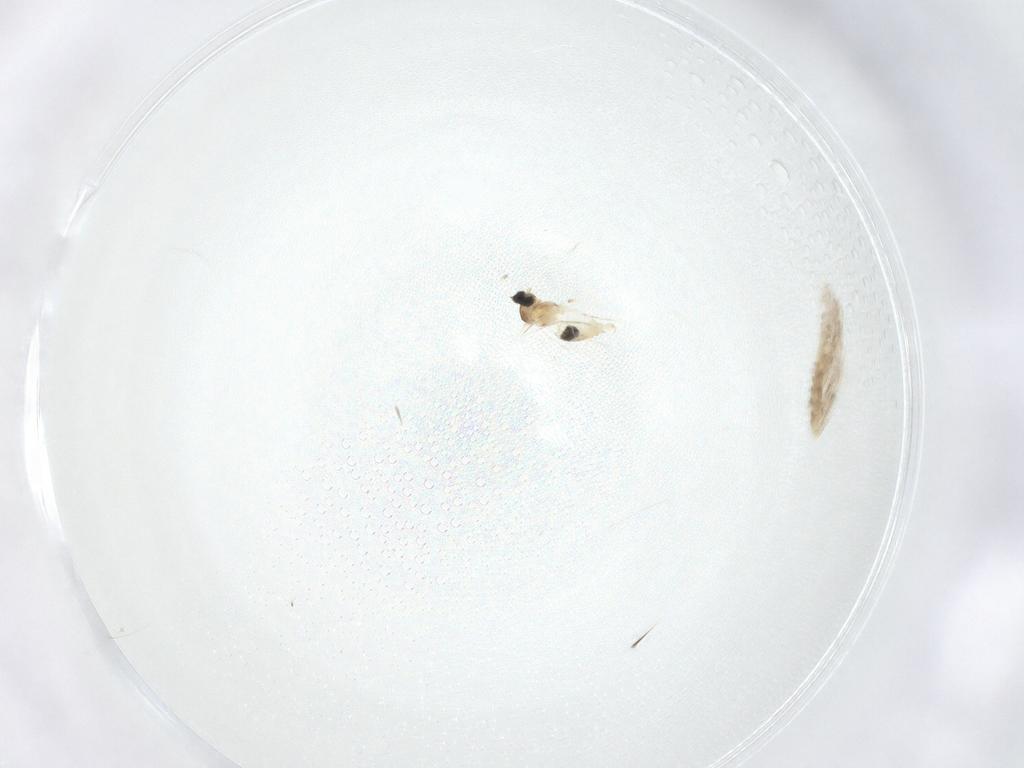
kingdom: Animalia
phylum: Arthropoda
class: Insecta
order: Diptera
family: Cecidomyiidae
